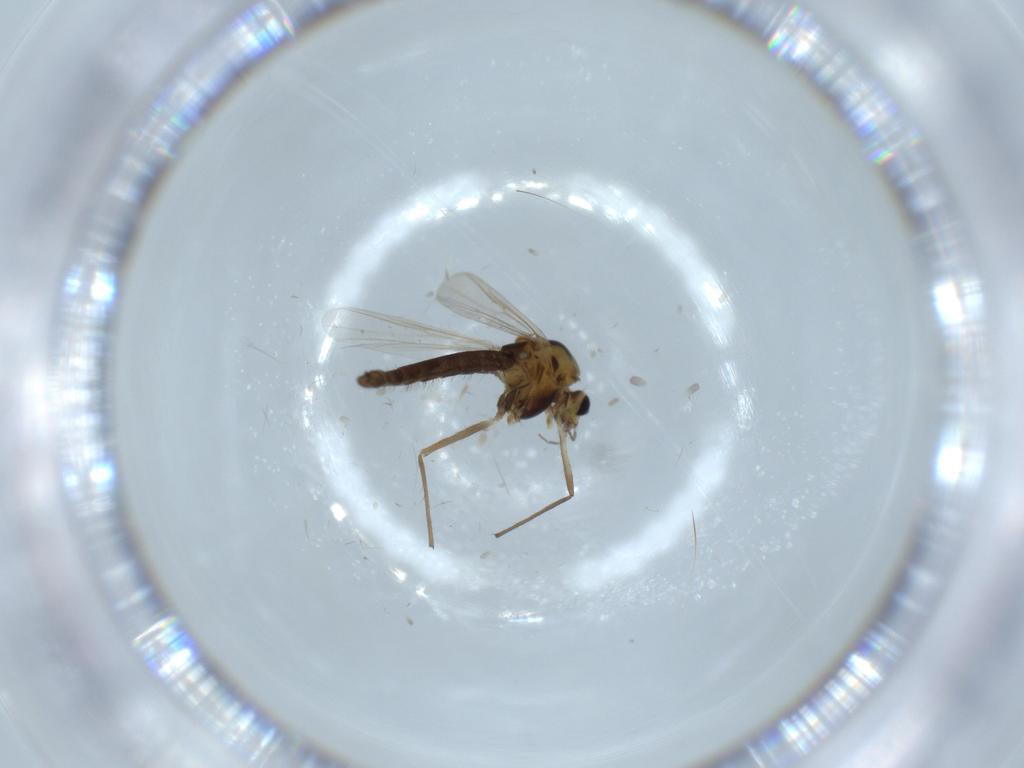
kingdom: Animalia
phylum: Arthropoda
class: Insecta
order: Diptera
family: Chironomidae
